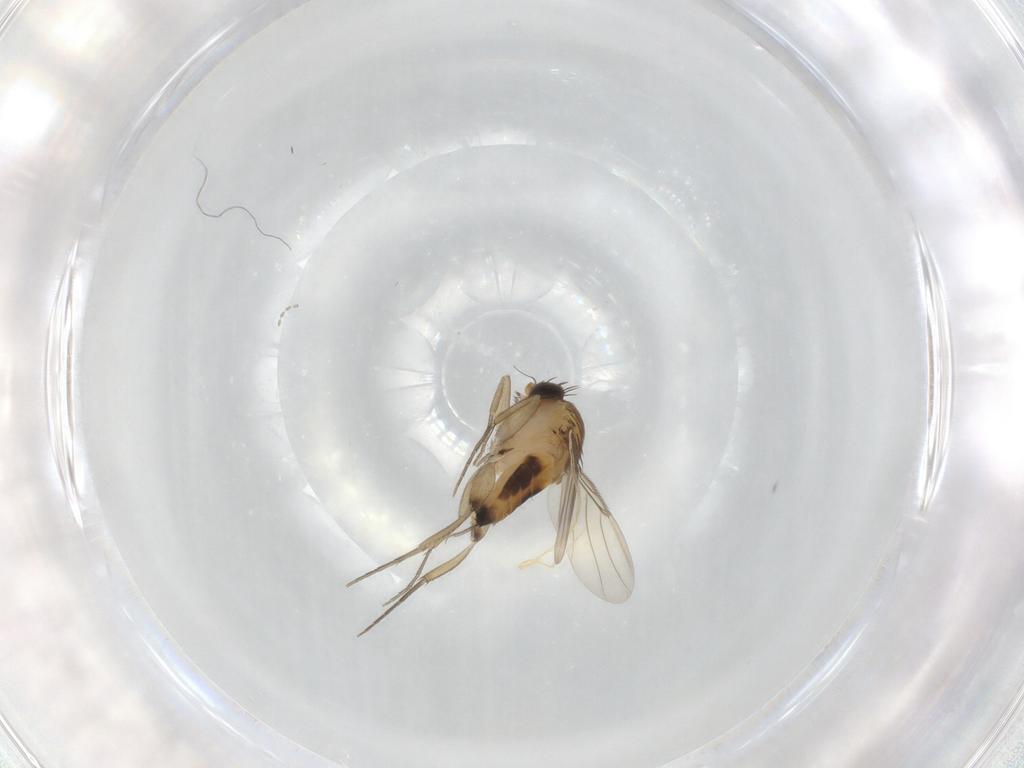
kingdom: Animalia
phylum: Arthropoda
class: Insecta
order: Diptera
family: Phoridae
